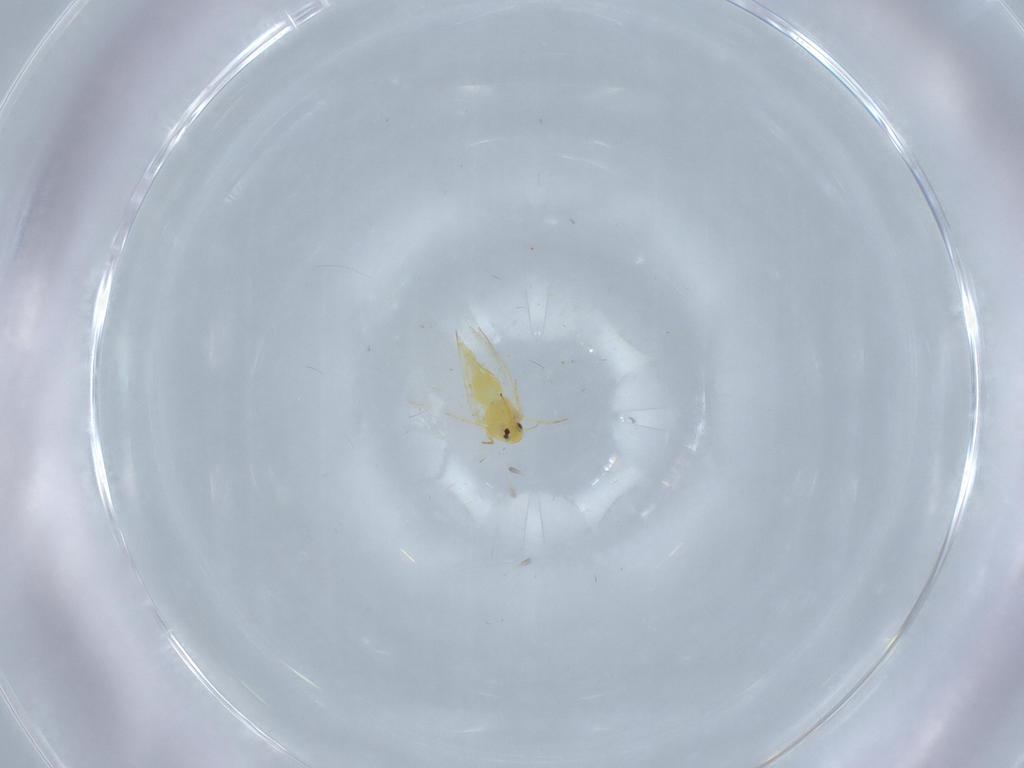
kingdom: Animalia
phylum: Arthropoda
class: Insecta
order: Hemiptera
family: Aleyrodidae
